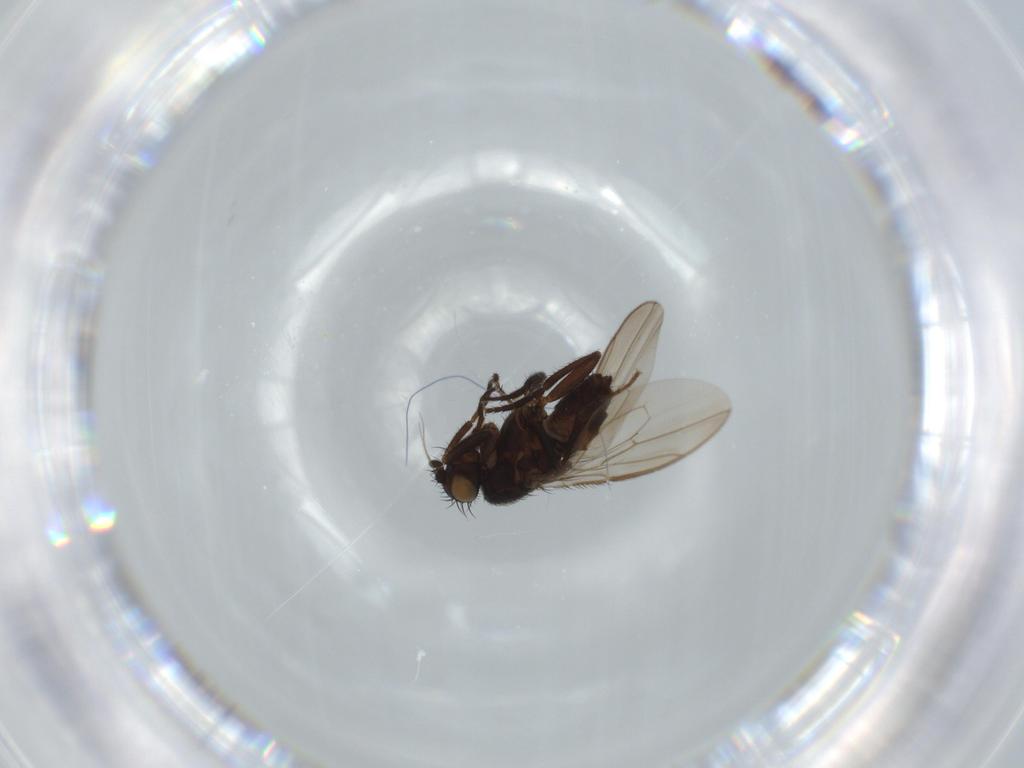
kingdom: Animalia
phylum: Arthropoda
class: Insecta
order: Diptera
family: Sphaeroceridae
